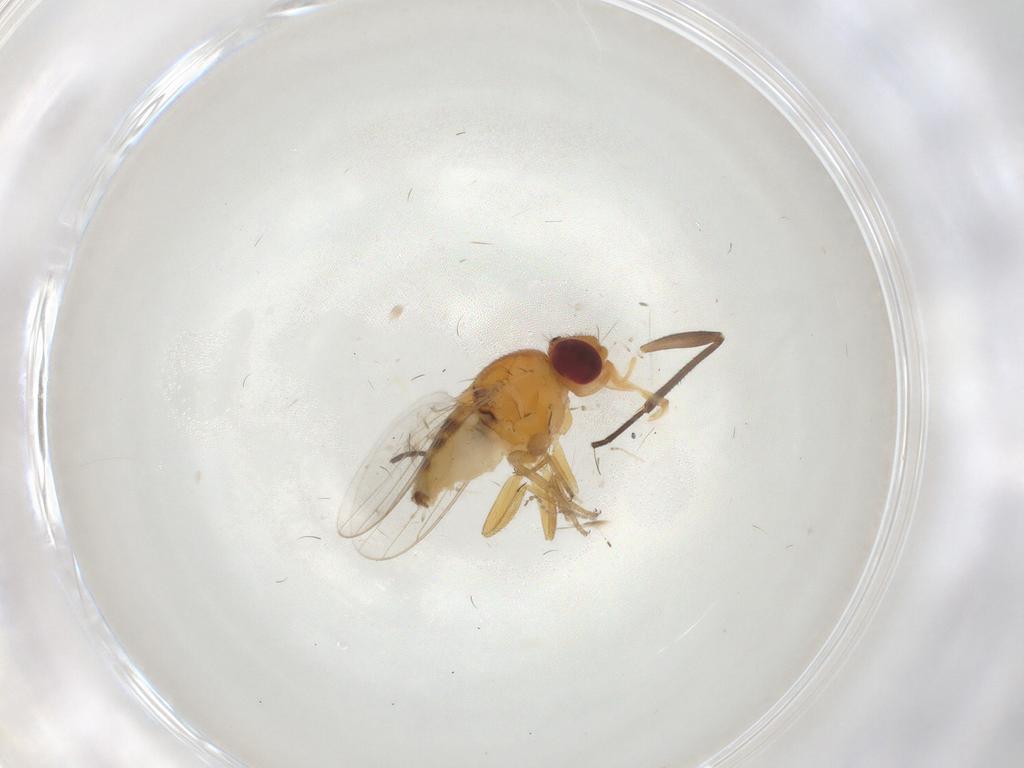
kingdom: Animalia
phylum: Arthropoda
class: Insecta
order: Diptera
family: Chloropidae
